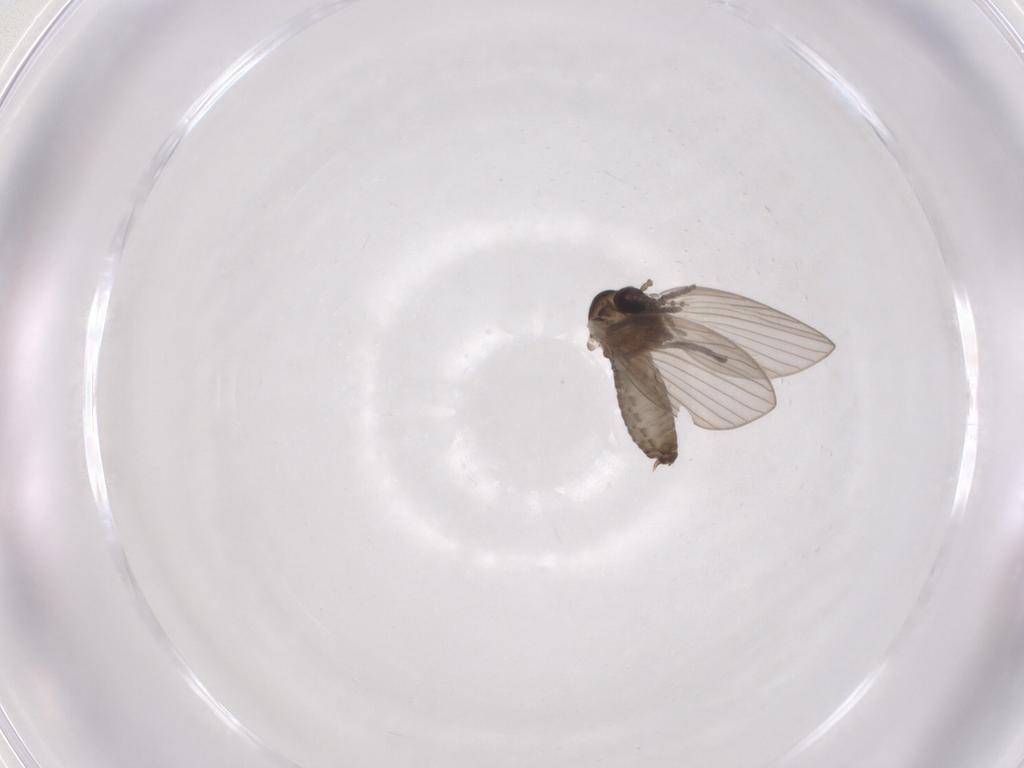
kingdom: Animalia
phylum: Arthropoda
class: Insecta
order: Diptera
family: Psychodidae
